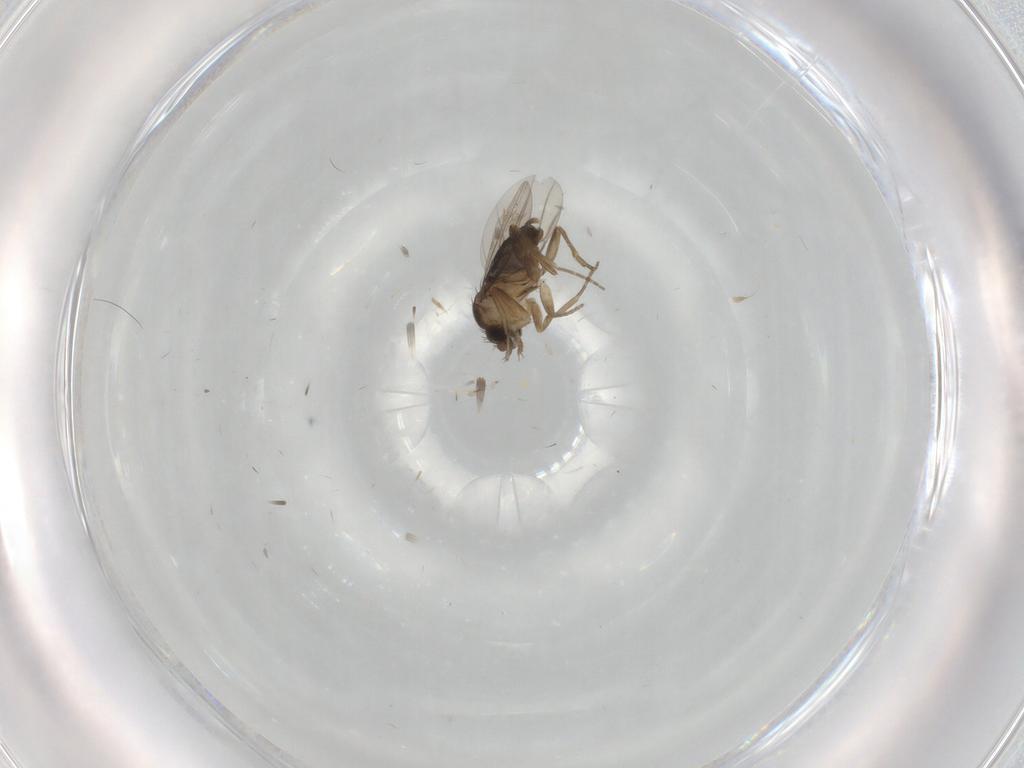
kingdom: Animalia
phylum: Arthropoda
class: Insecta
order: Diptera
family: Phoridae
